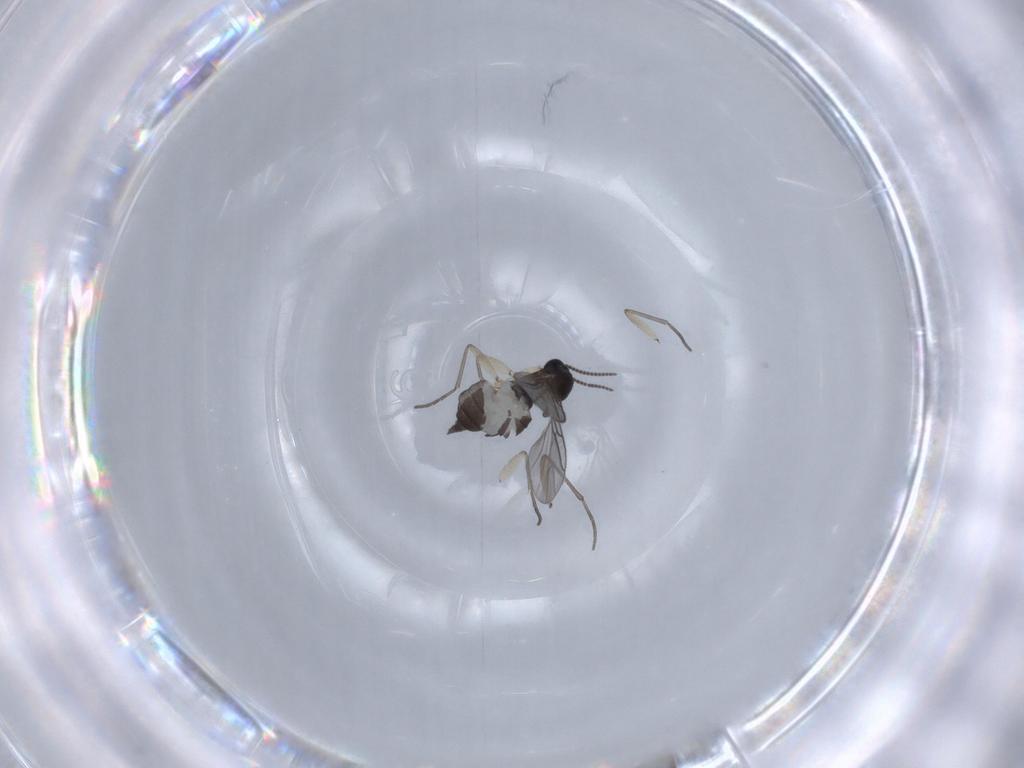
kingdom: Animalia
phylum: Arthropoda
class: Insecta
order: Diptera
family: Sciaridae
